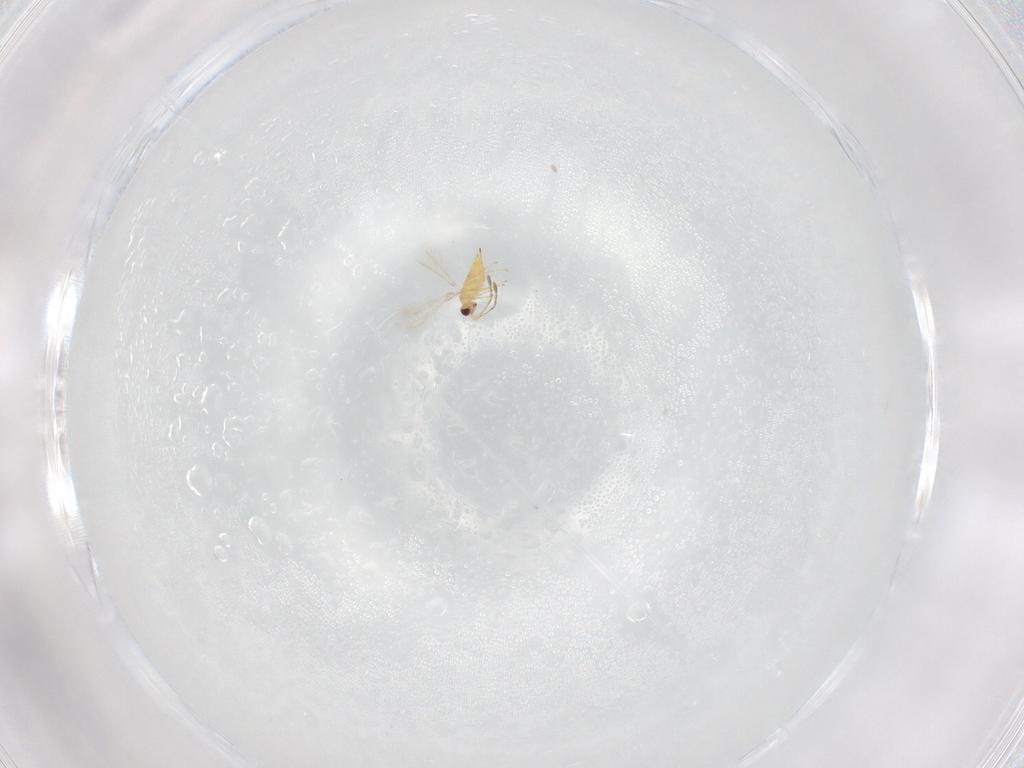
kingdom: Animalia
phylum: Arthropoda
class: Insecta
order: Hymenoptera
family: Mymaridae
